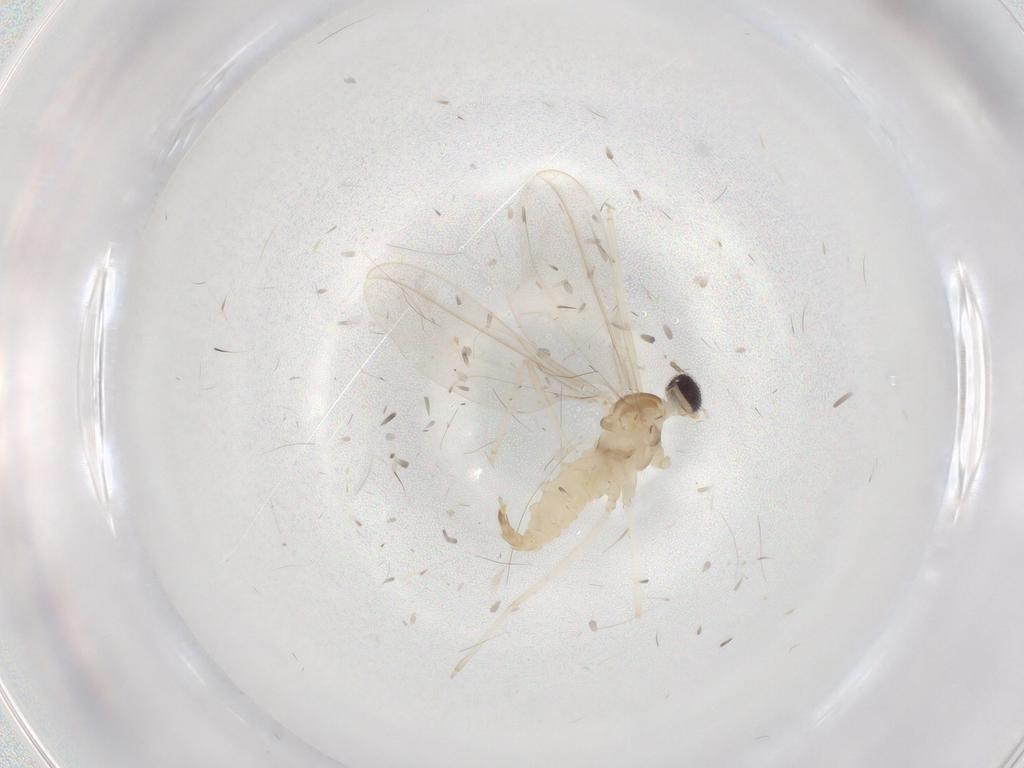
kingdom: Animalia
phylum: Arthropoda
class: Insecta
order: Diptera
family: Cecidomyiidae
